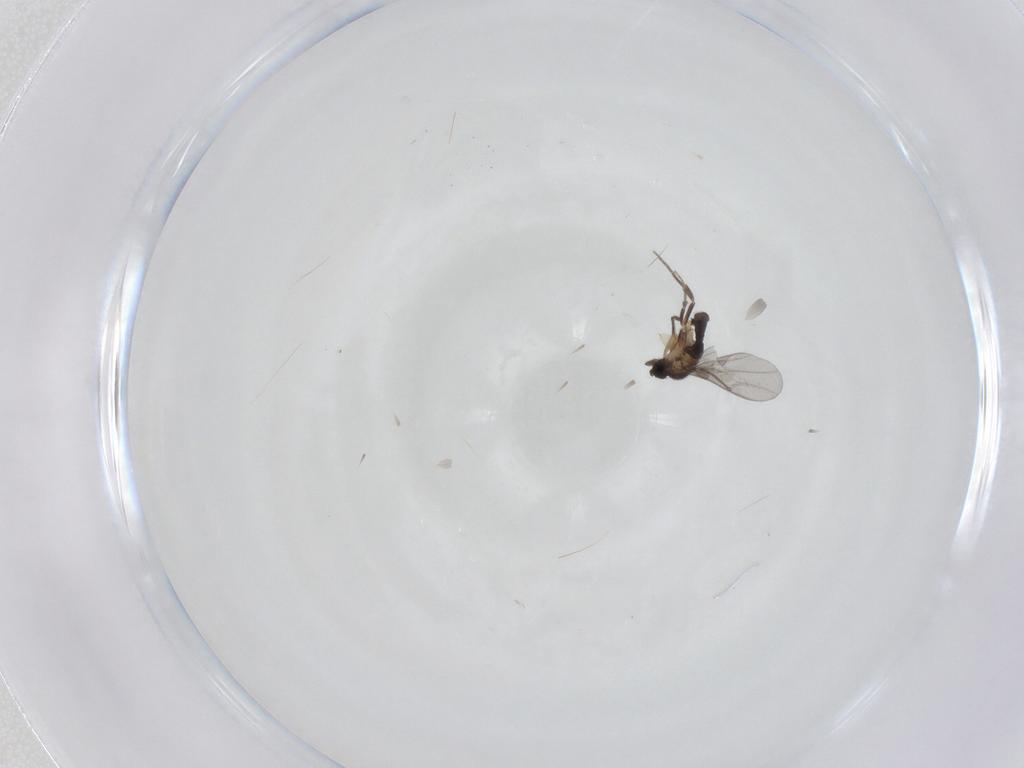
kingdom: Animalia
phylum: Arthropoda
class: Insecta
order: Diptera
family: Phoridae
